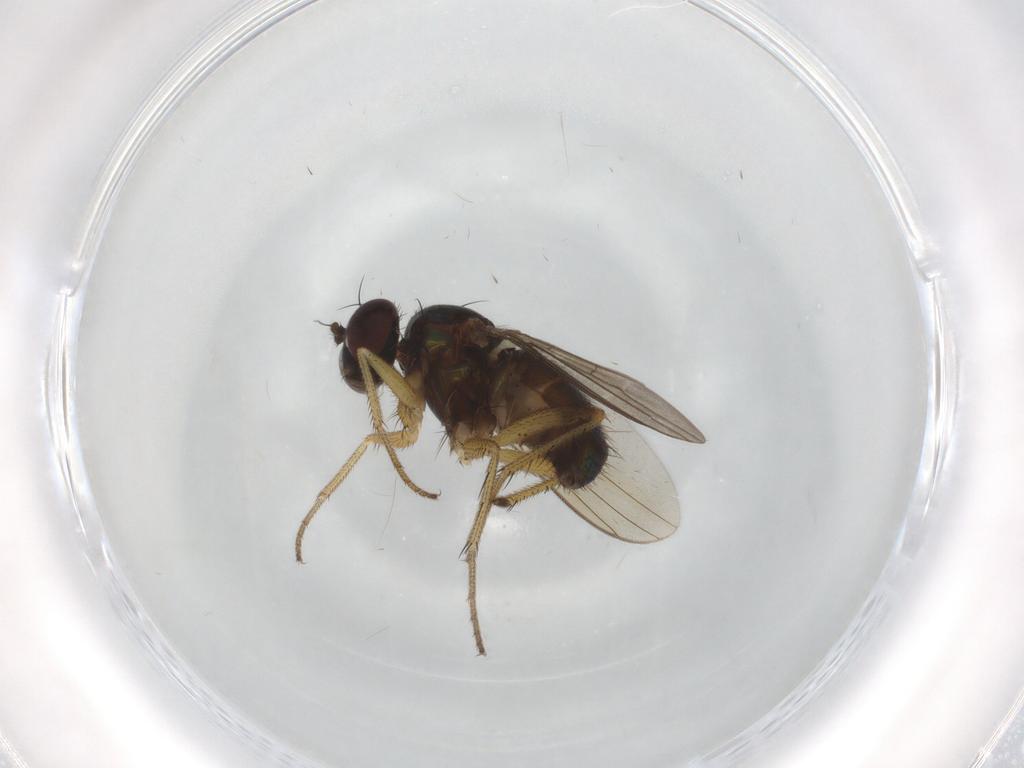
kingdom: Animalia
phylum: Arthropoda
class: Insecta
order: Diptera
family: Dolichopodidae
